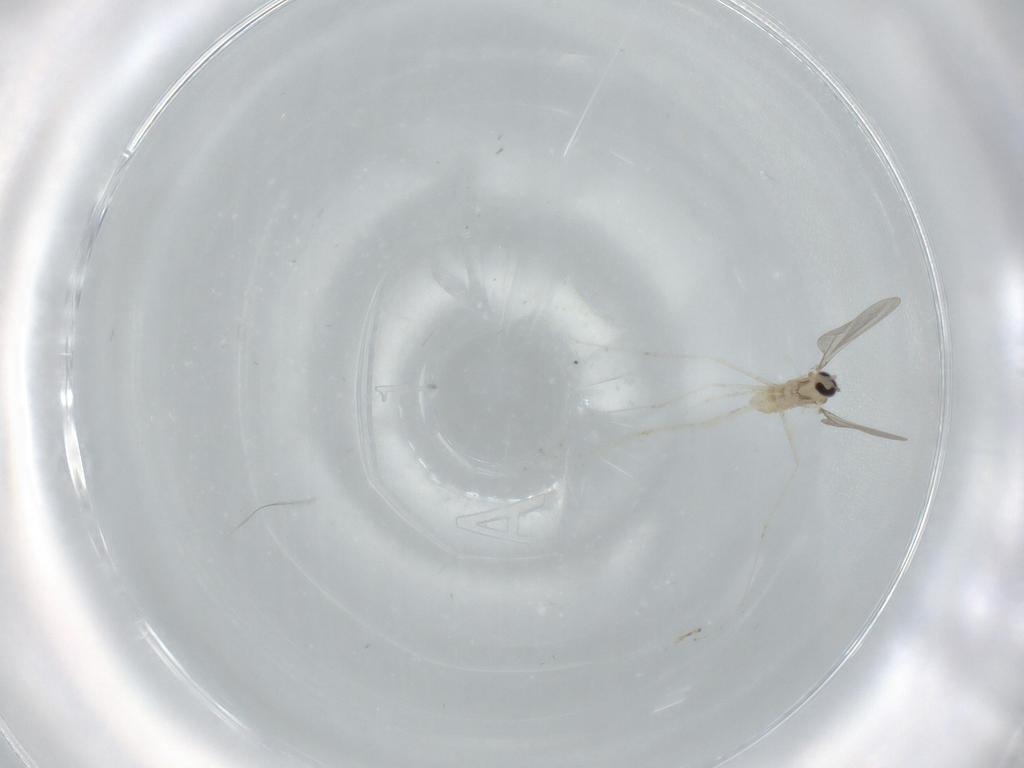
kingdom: Animalia
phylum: Arthropoda
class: Insecta
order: Diptera
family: Cecidomyiidae
